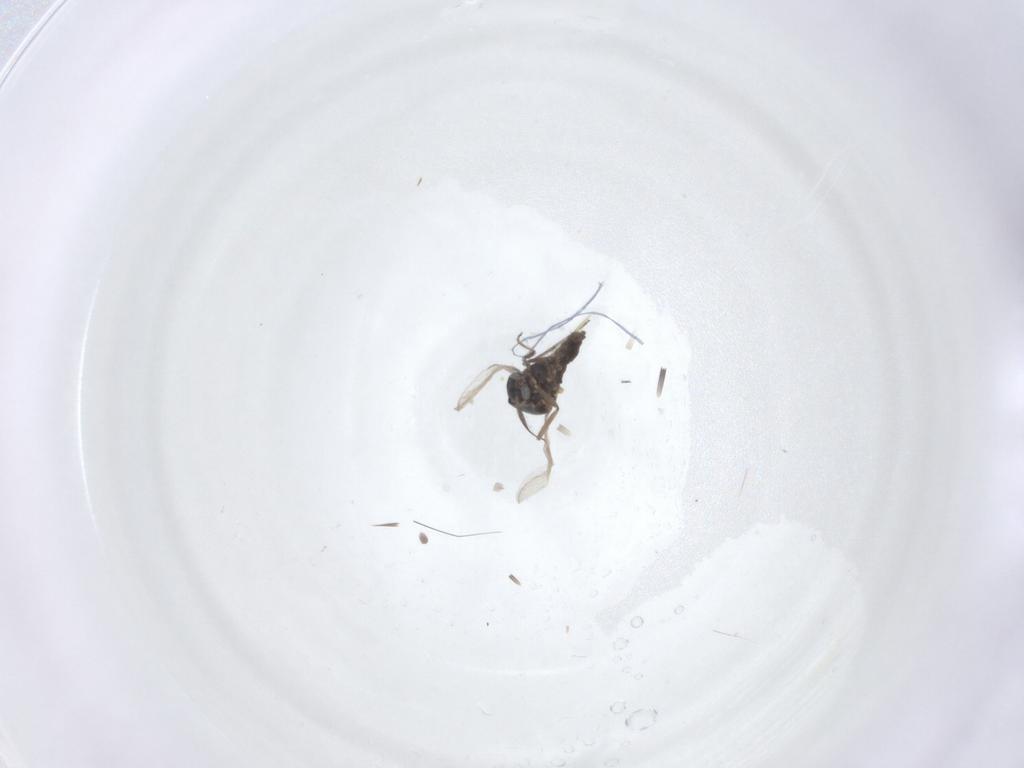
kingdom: Animalia
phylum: Arthropoda
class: Insecta
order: Diptera
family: Ceratopogonidae
